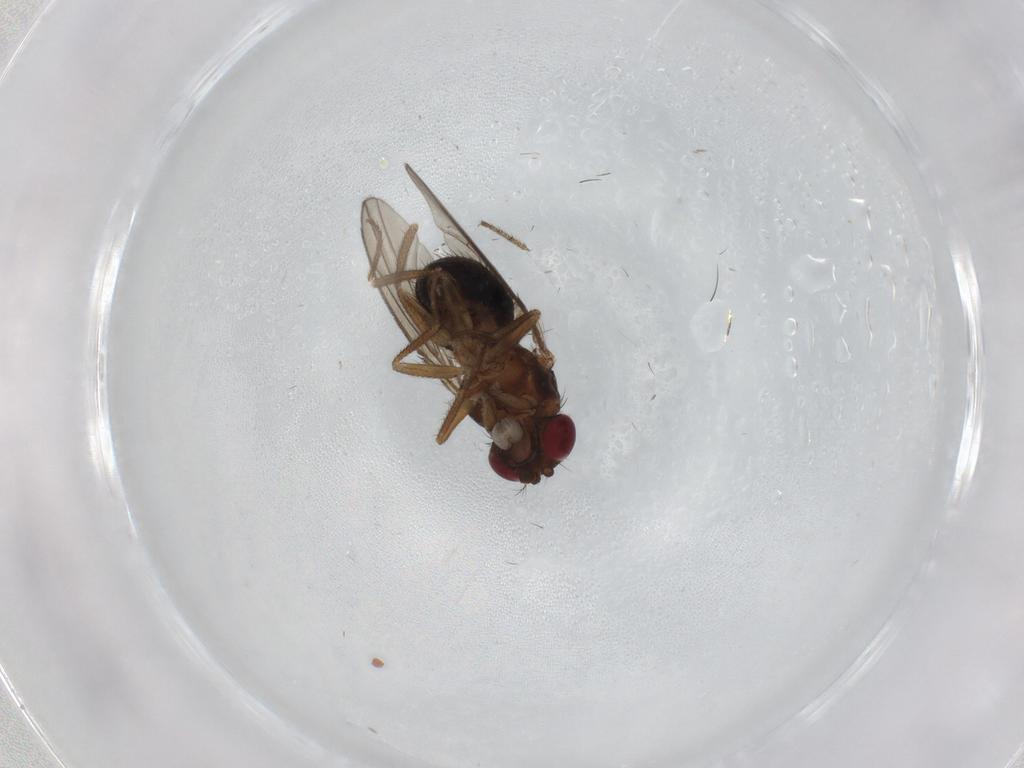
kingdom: Animalia
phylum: Arthropoda
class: Insecta
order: Diptera
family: Drosophilidae
